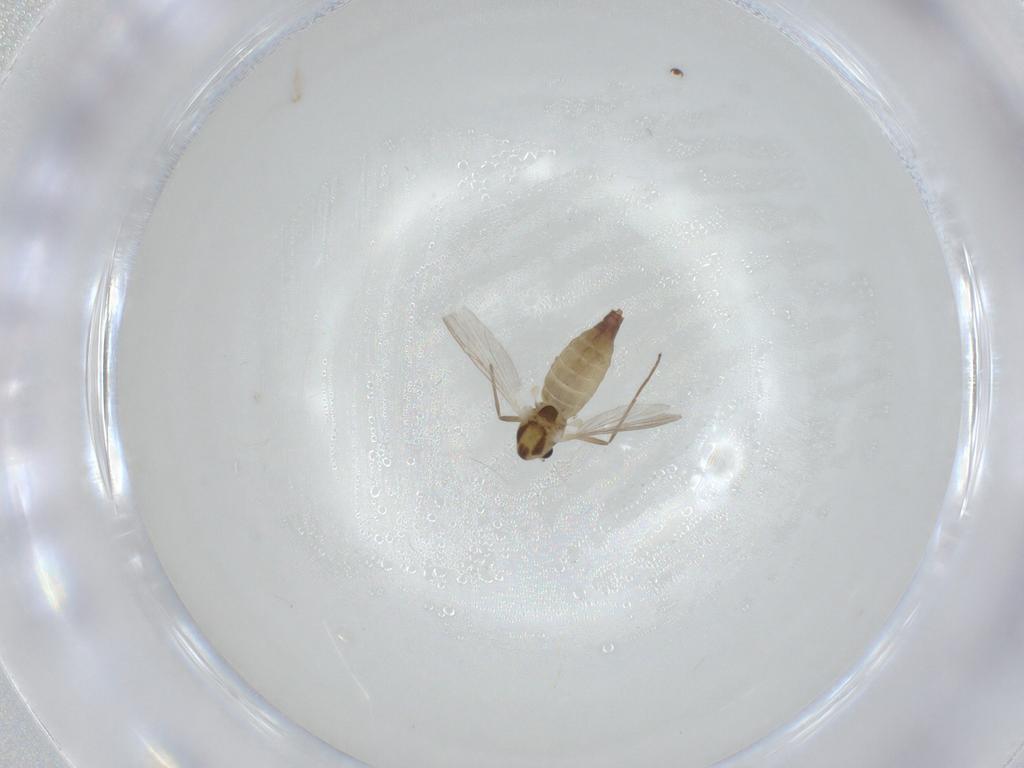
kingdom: Animalia
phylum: Arthropoda
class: Insecta
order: Diptera
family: Chironomidae
